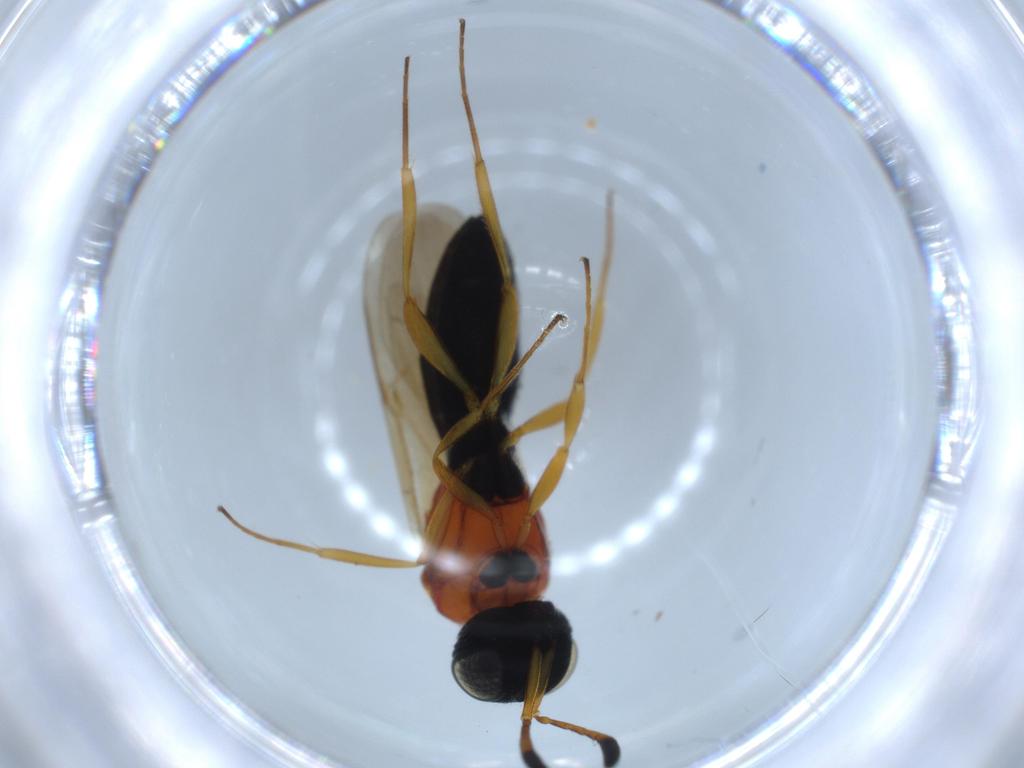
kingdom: Animalia
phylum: Arthropoda
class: Insecta
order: Hymenoptera
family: Scelionidae
